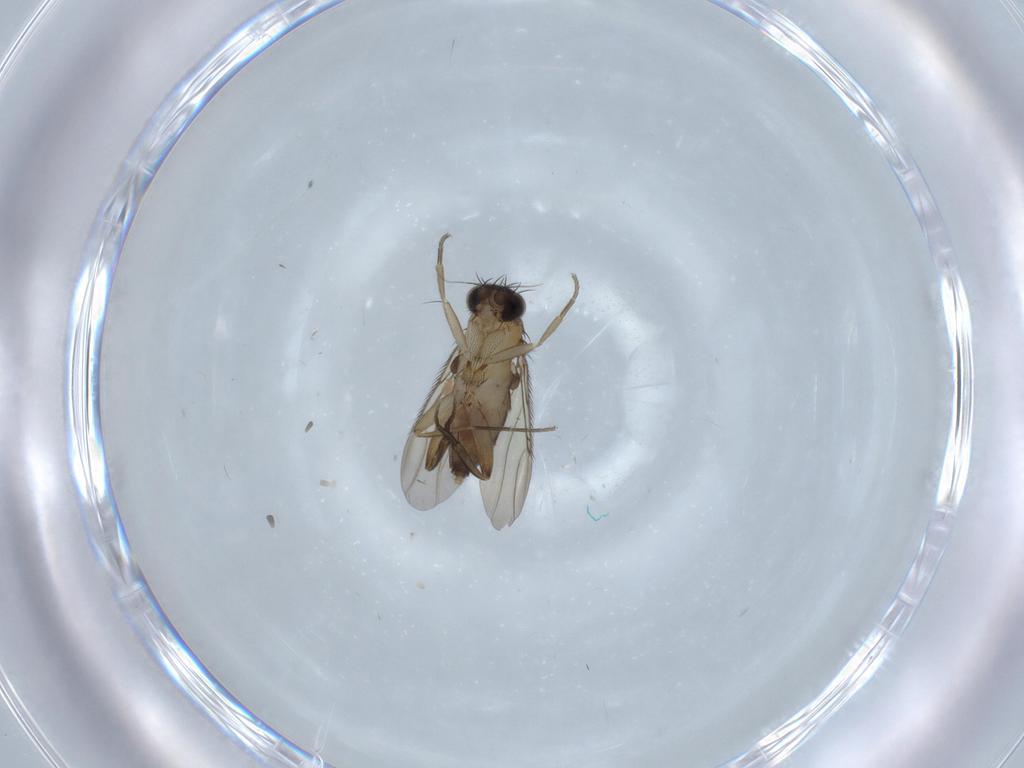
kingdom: Animalia
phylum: Arthropoda
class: Insecta
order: Diptera
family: Phoridae
